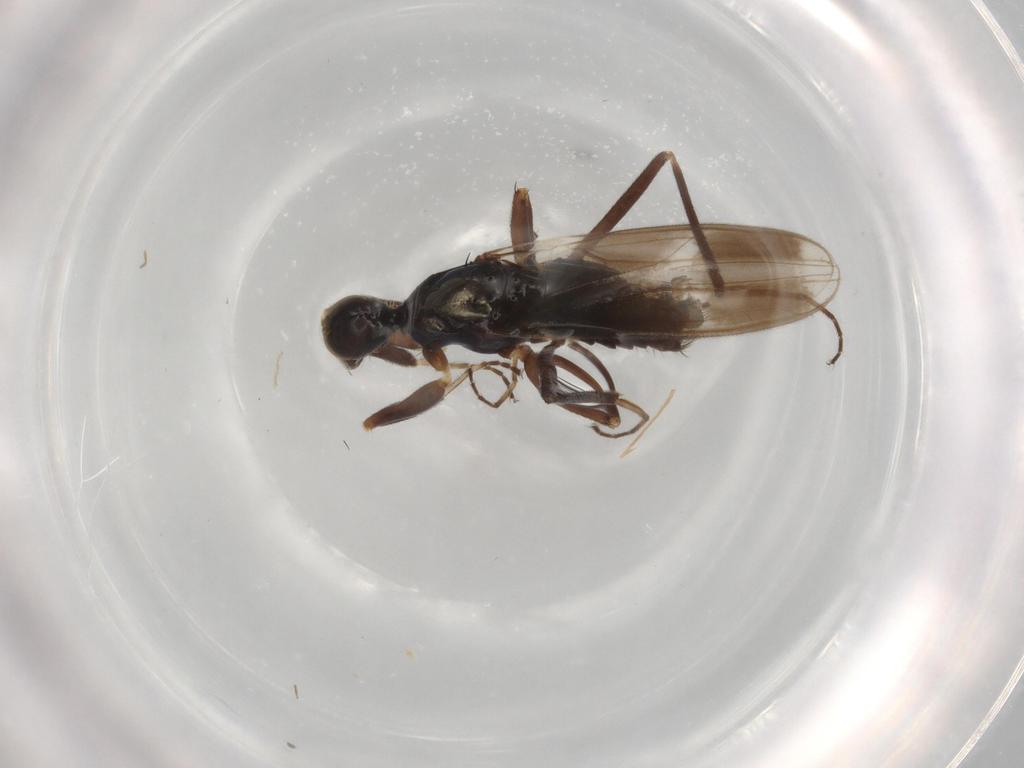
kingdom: Animalia
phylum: Arthropoda
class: Insecta
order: Diptera
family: Hybotidae
